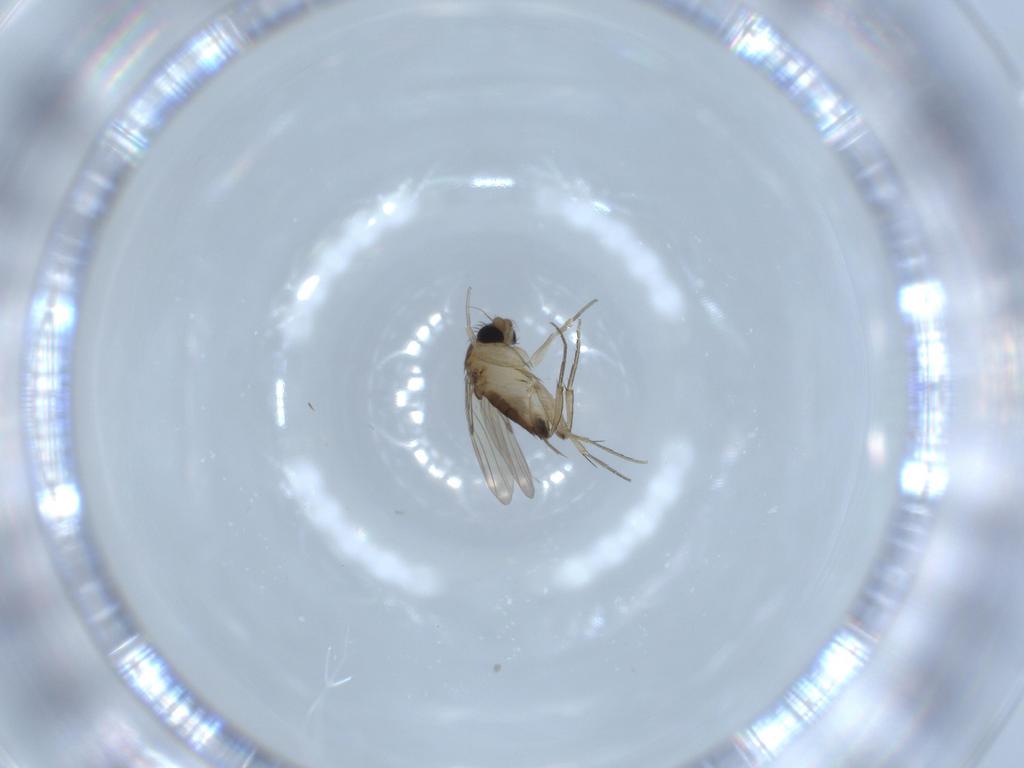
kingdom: Animalia
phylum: Arthropoda
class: Insecta
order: Diptera
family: Phoridae
